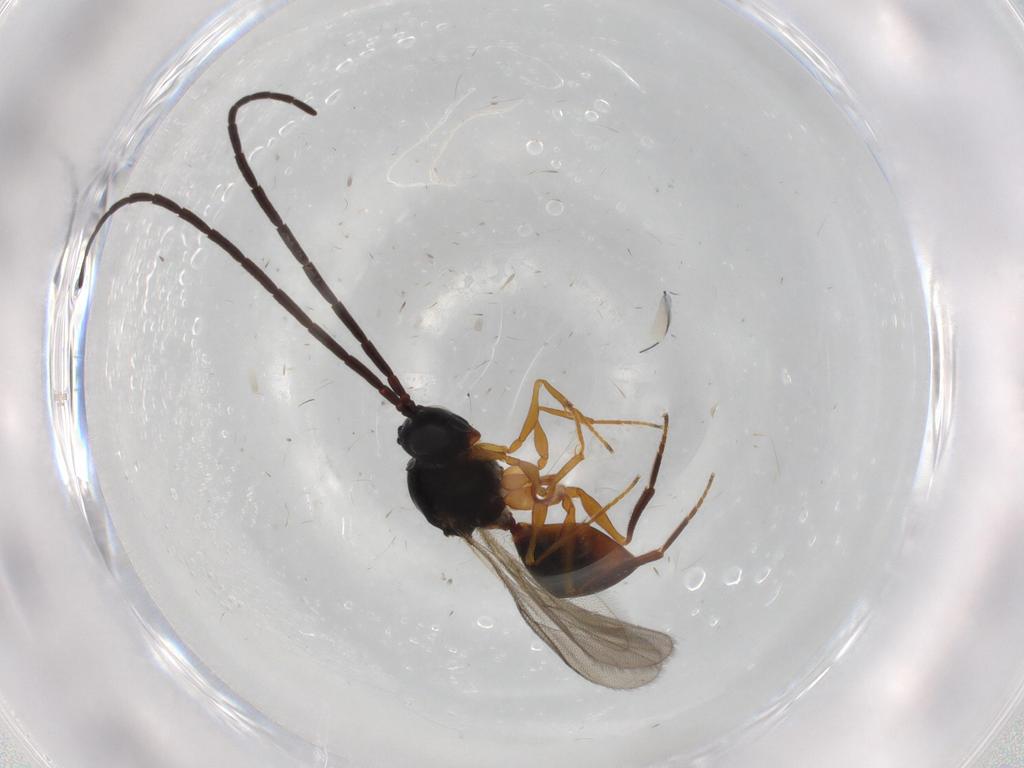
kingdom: Animalia
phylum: Arthropoda
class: Insecta
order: Hymenoptera
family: Figitidae
